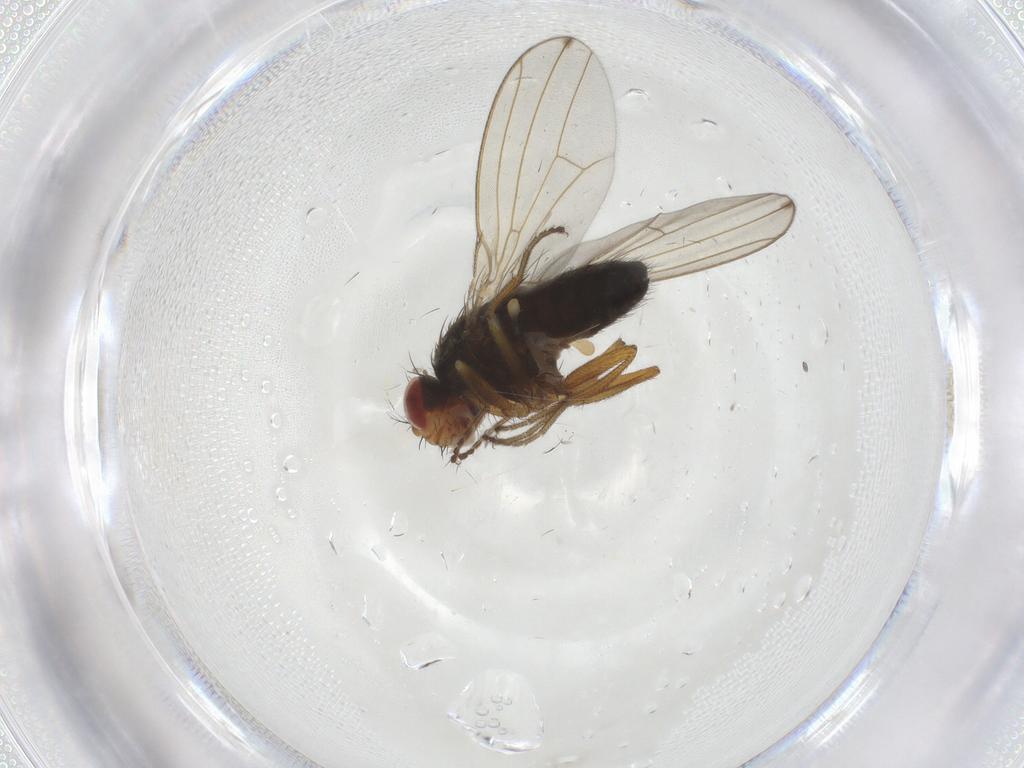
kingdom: Animalia
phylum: Arthropoda
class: Insecta
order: Diptera
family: Drosophilidae
